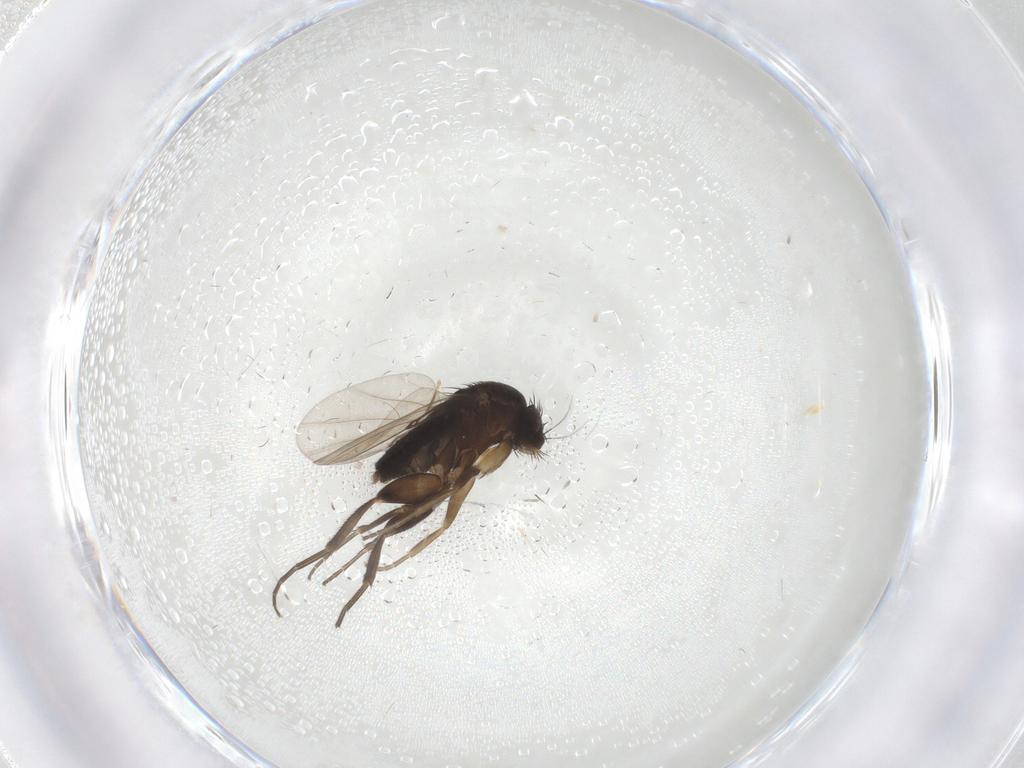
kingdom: Animalia
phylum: Arthropoda
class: Insecta
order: Diptera
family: Phoridae
